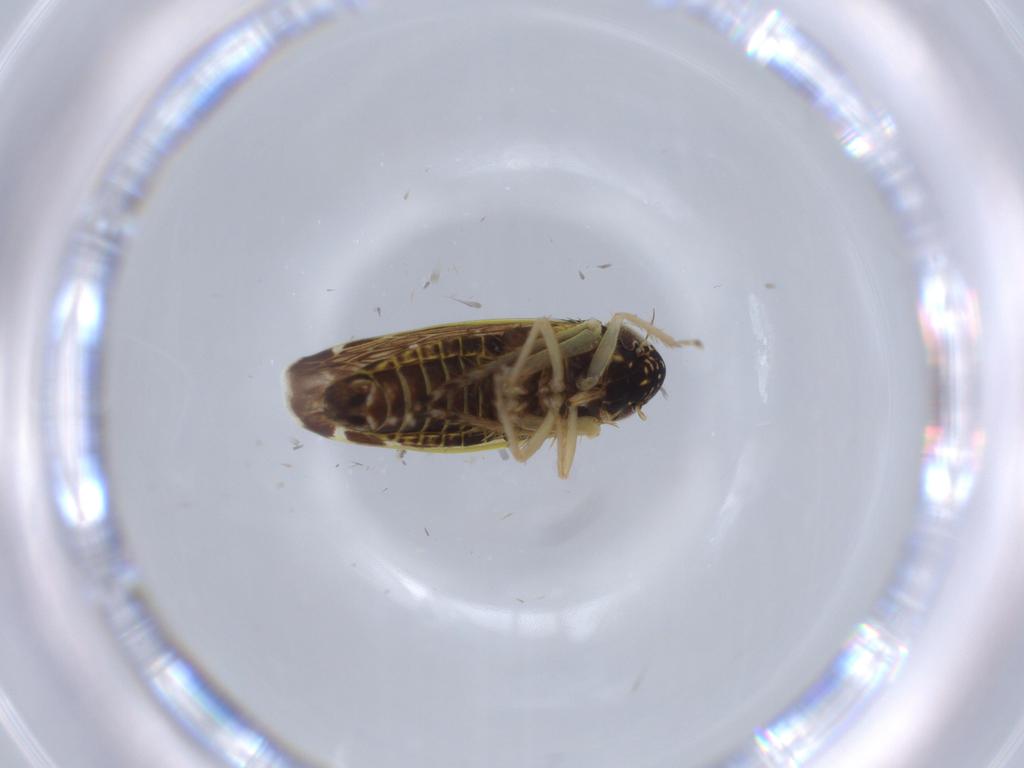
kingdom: Animalia
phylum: Arthropoda
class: Insecta
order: Hemiptera
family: Cicadellidae
